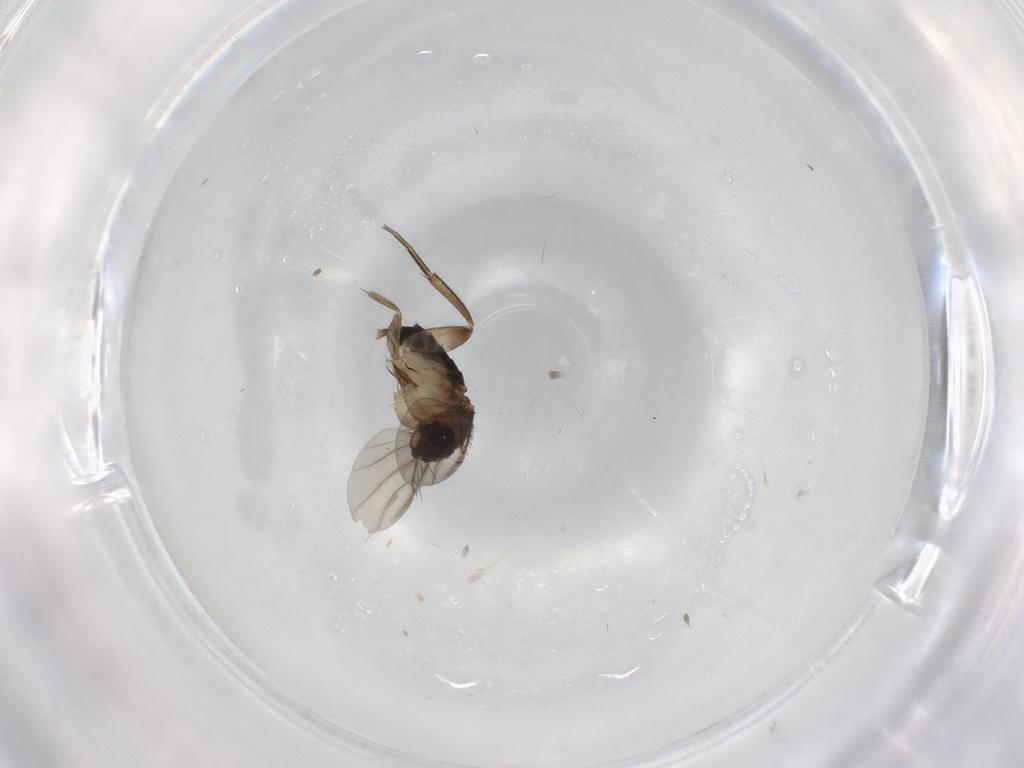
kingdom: Animalia
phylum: Arthropoda
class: Insecta
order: Diptera
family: Phoridae
